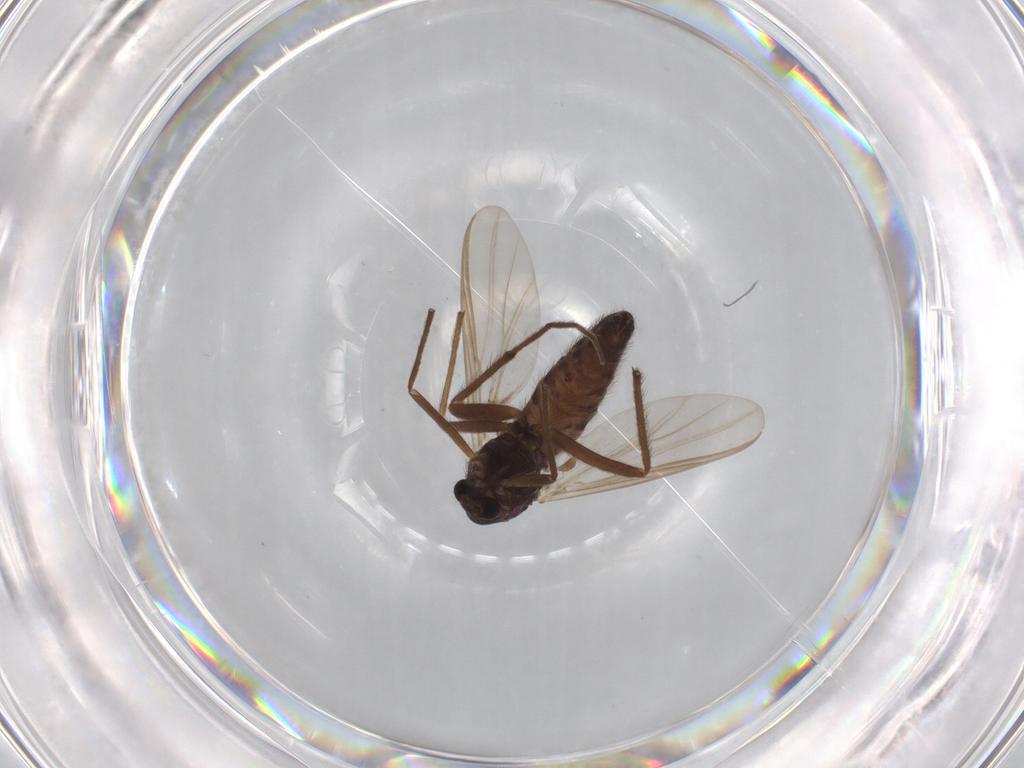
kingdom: Animalia
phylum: Arthropoda
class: Insecta
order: Diptera
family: Chironomidae
